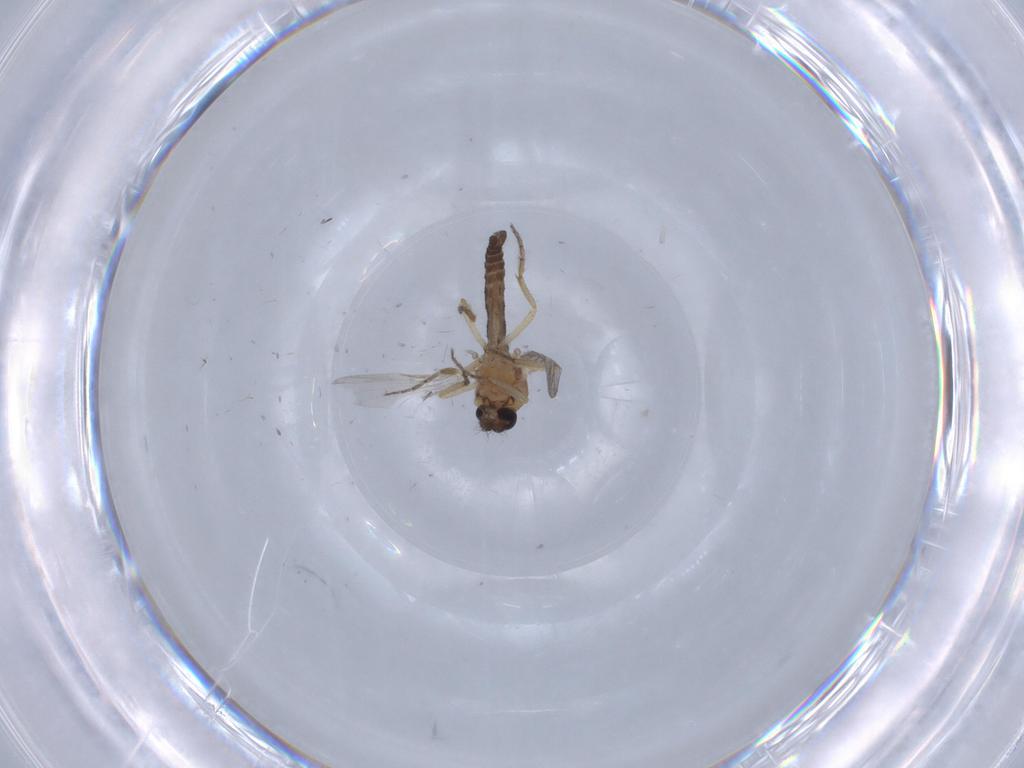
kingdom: Animalia
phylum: Arthropoda
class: Insecta
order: Diptera
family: Ceratopogonidae
